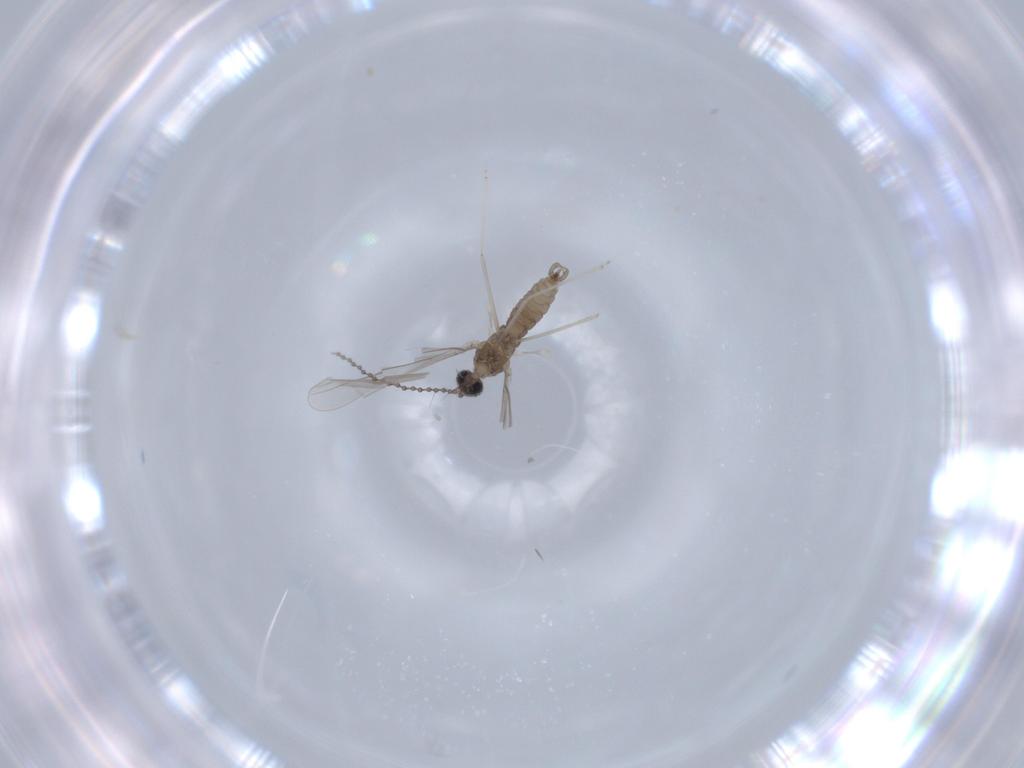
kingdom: Animalia
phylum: Arthropoda
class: Insecta
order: Diptera
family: Cecidomyiidae
